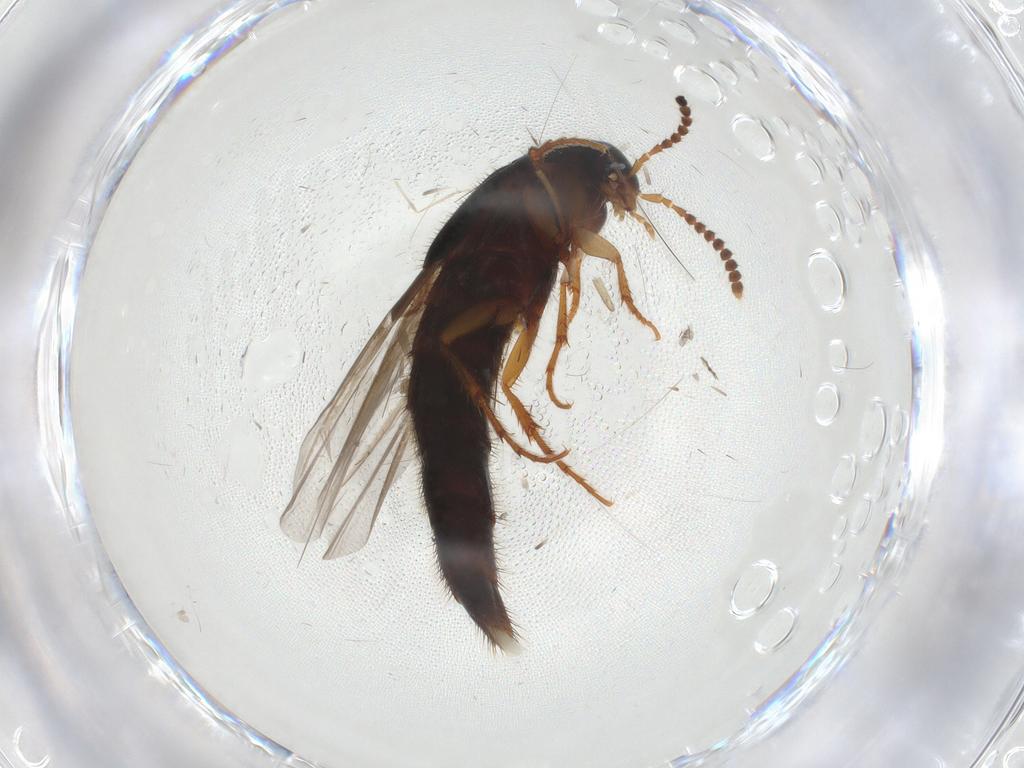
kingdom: Animalia
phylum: Arthropoda
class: Insecta
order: Coleoptera
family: Staphylinidae
